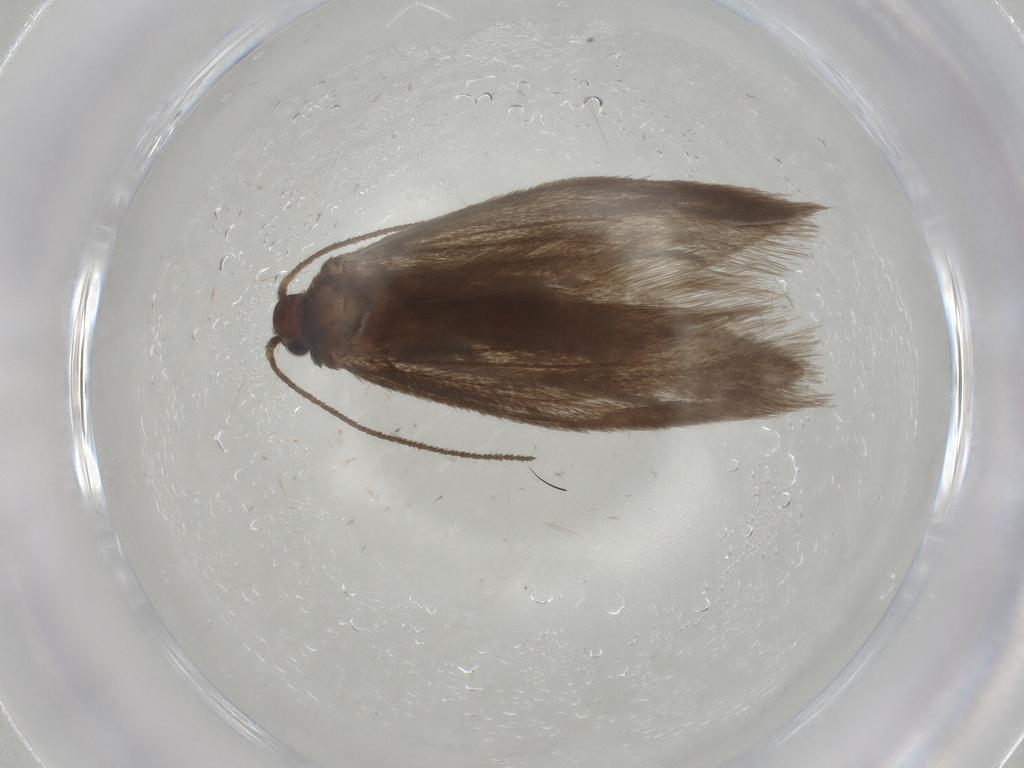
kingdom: Animalia
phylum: Arthropoda
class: Insecta
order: Lepidoptera
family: Limacodidae
